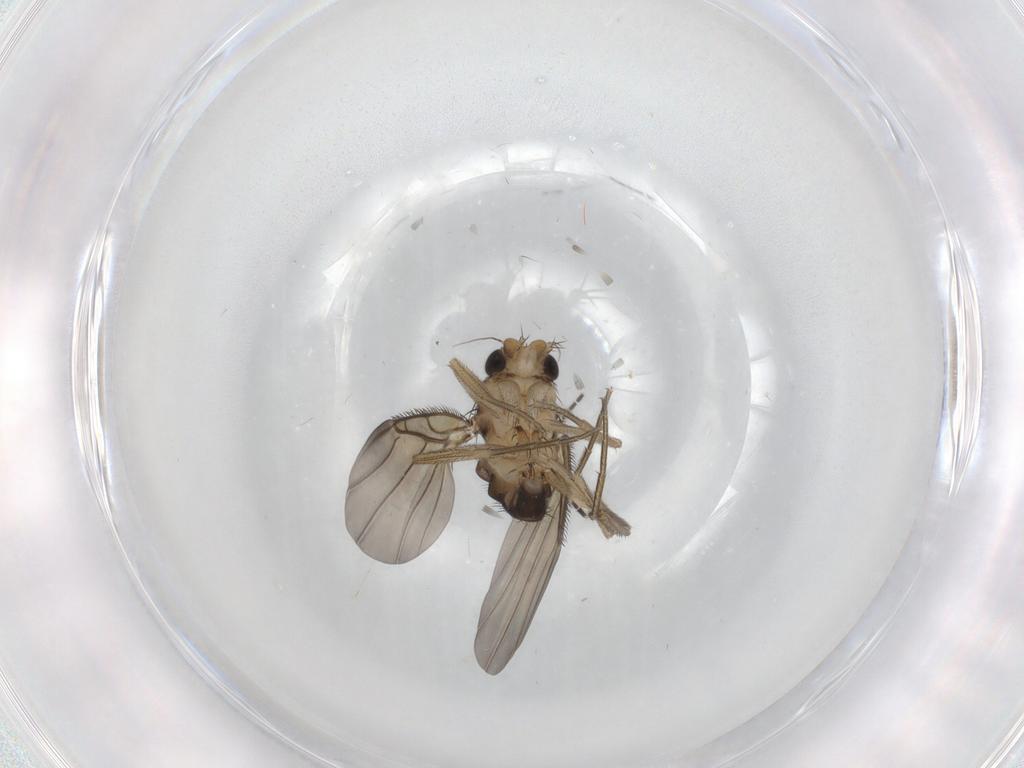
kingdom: Animalia
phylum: Arthropoda
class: Insecta
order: Diptera
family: Phoridae
